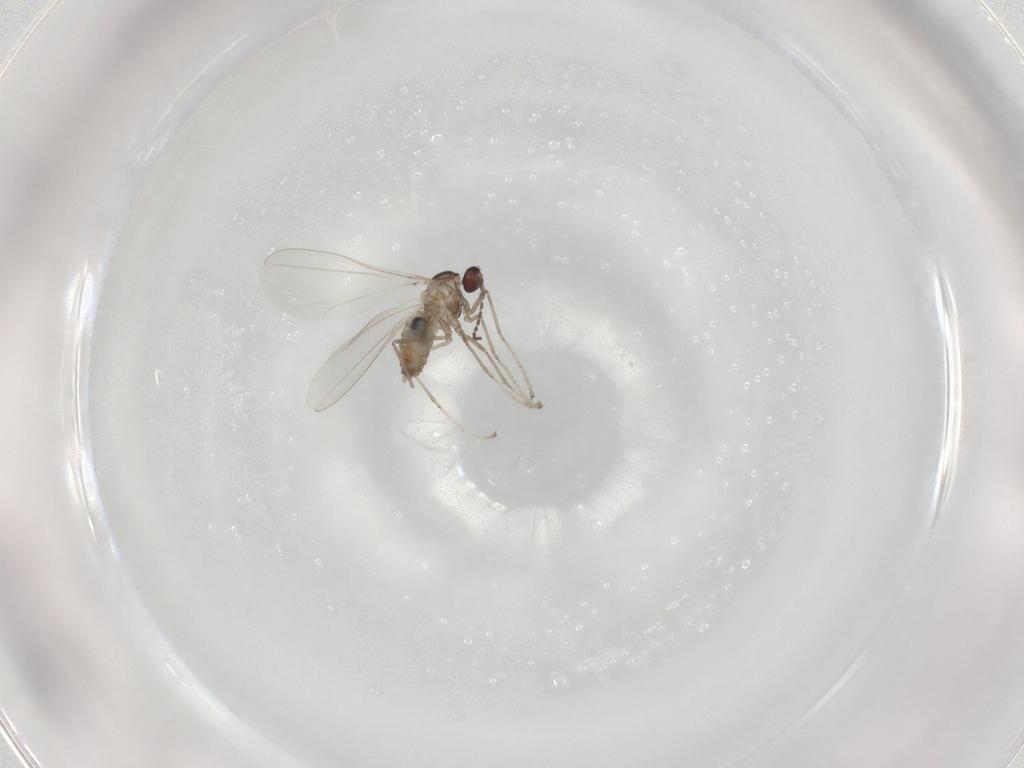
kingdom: Animalia
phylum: Arthropoda
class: Insecta
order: Diptera
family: Cecidomyiidae
